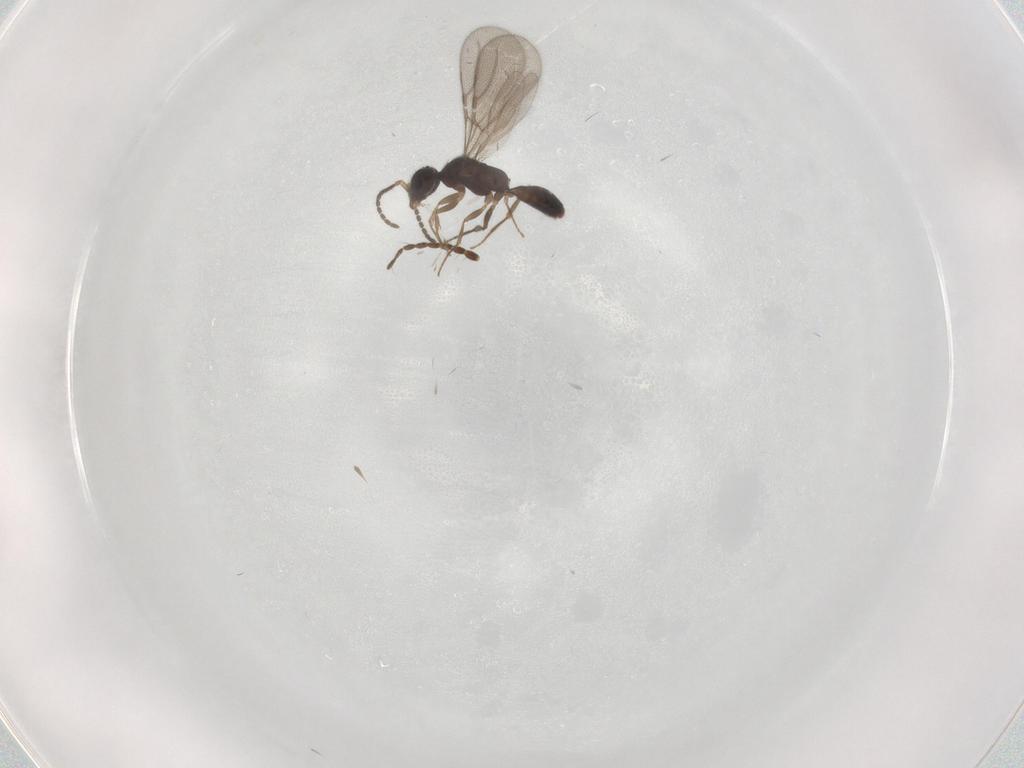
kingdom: Animalia
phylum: Arthropoda
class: Insecta
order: Hymenoptera
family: Bethylidae
